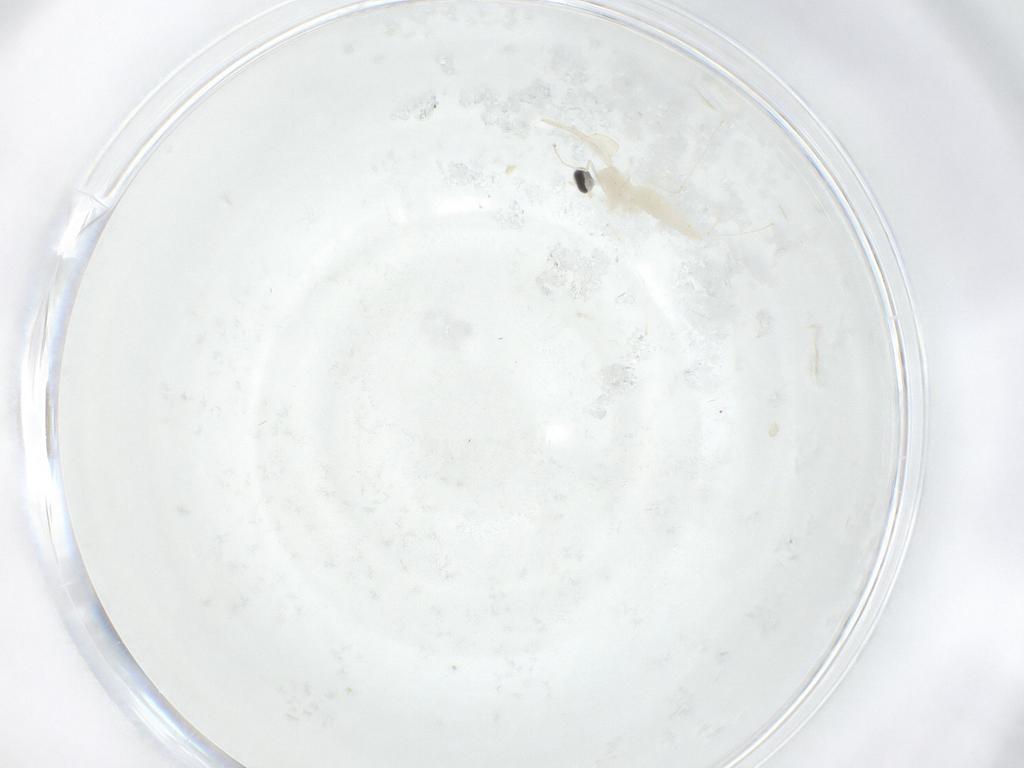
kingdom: Animalia
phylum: Arthropoda
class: Insecta
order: Diptera
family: Cecidomyiidae
